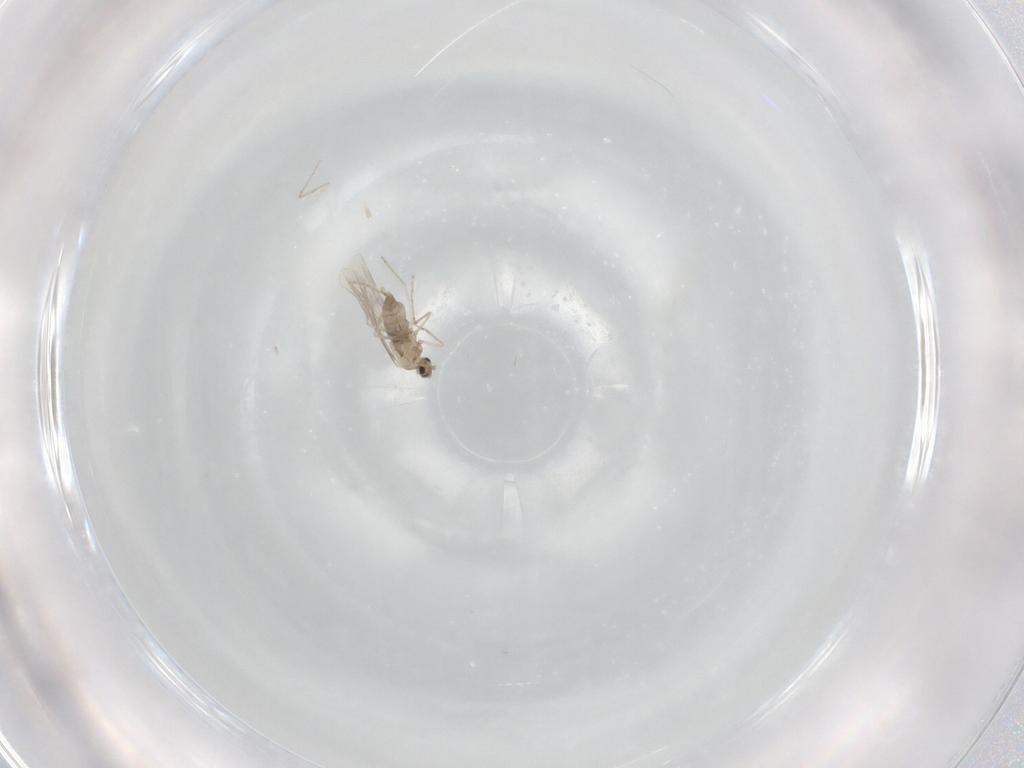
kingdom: Animalia
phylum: Arthropoda
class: Insecta
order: Diptera
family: Cecidomyiidae
